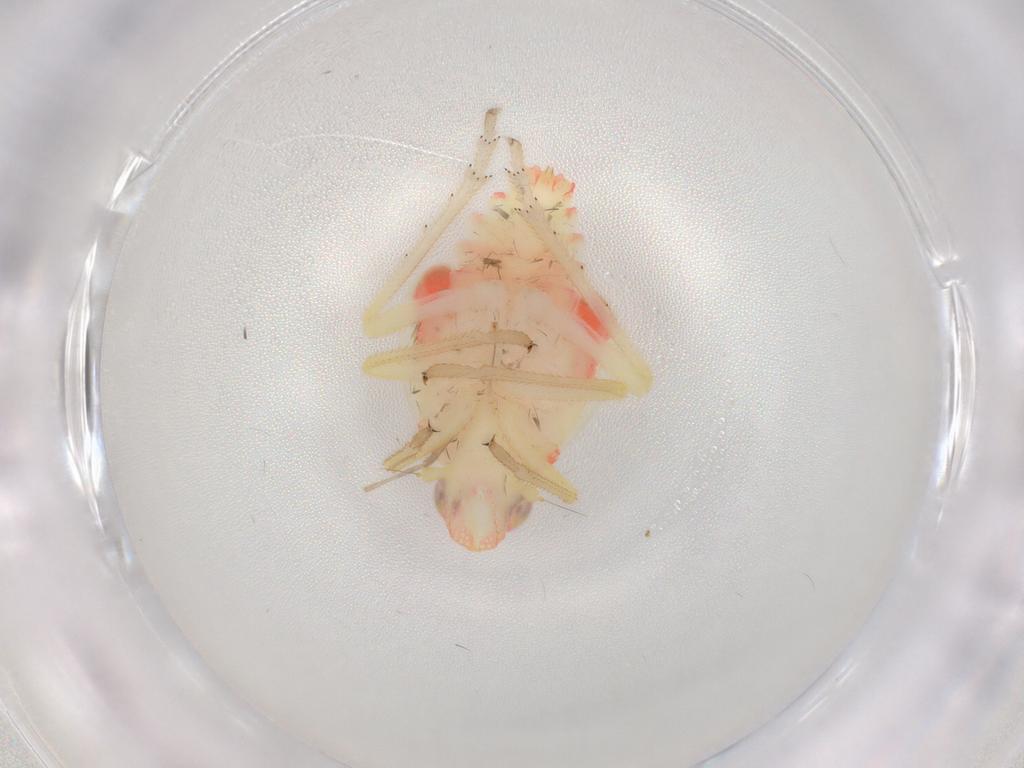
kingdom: Animalia
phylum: Arthropoda
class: Insecta
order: Hemiptera
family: Tropiduchidae
